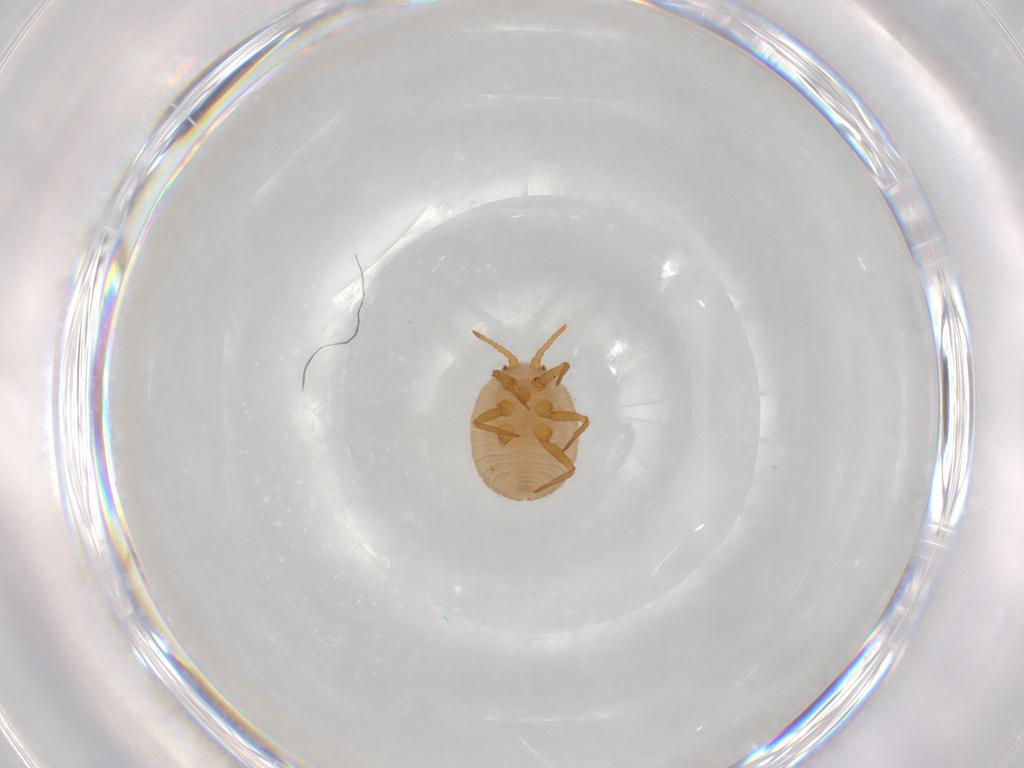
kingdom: Animalia
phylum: Arthropoda
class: Insecta
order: Hemiptera
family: Ortheziidae
